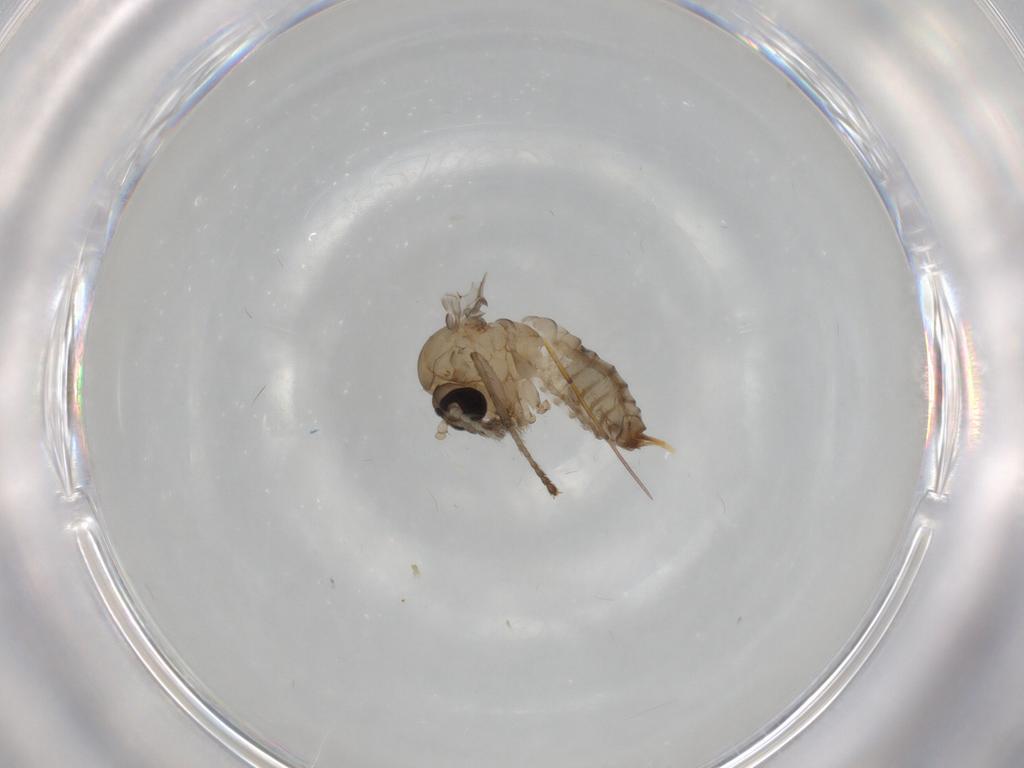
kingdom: Animalia
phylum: Arthropoda
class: Insecta
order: Diptera
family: Psychodidae
